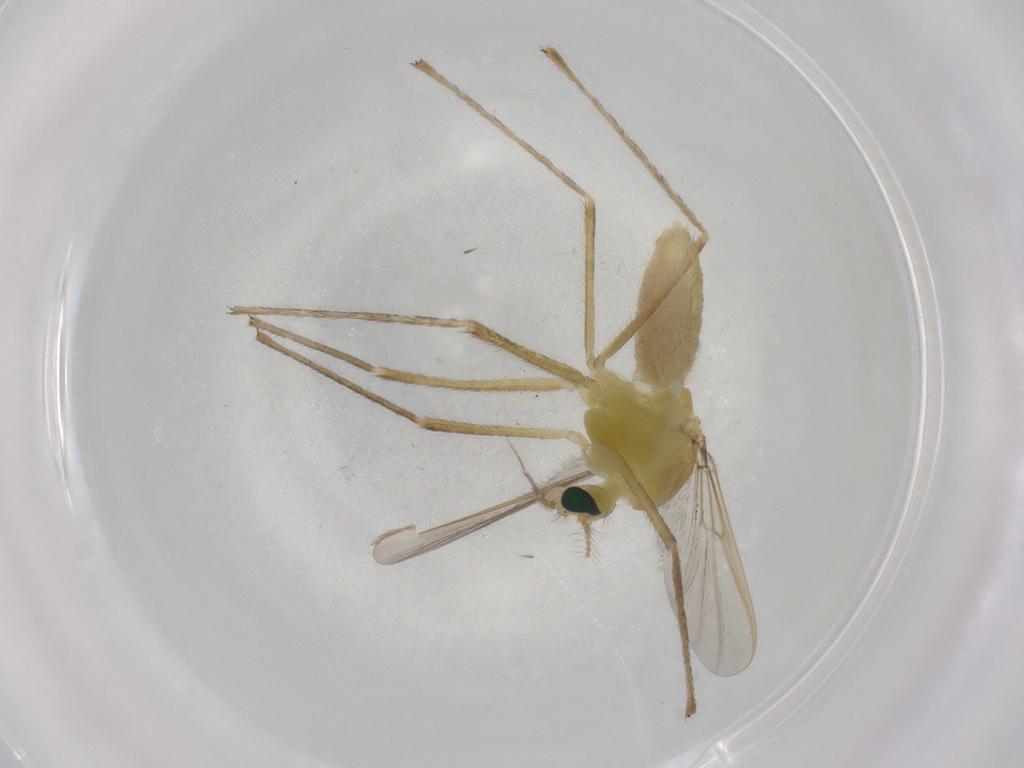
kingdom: Animalia
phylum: Arthropoda
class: Insecta
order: Diptera
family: Chironomidae
